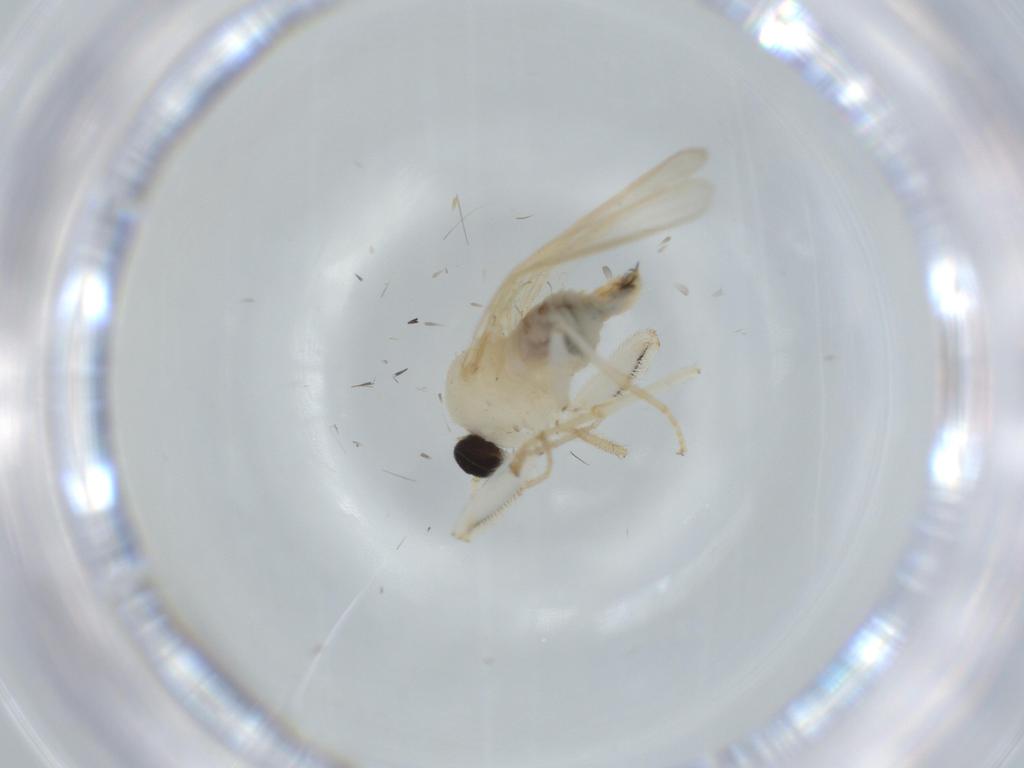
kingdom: Animalia
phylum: Arthropoda
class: Insecta
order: Diptera
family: Hybotidae
